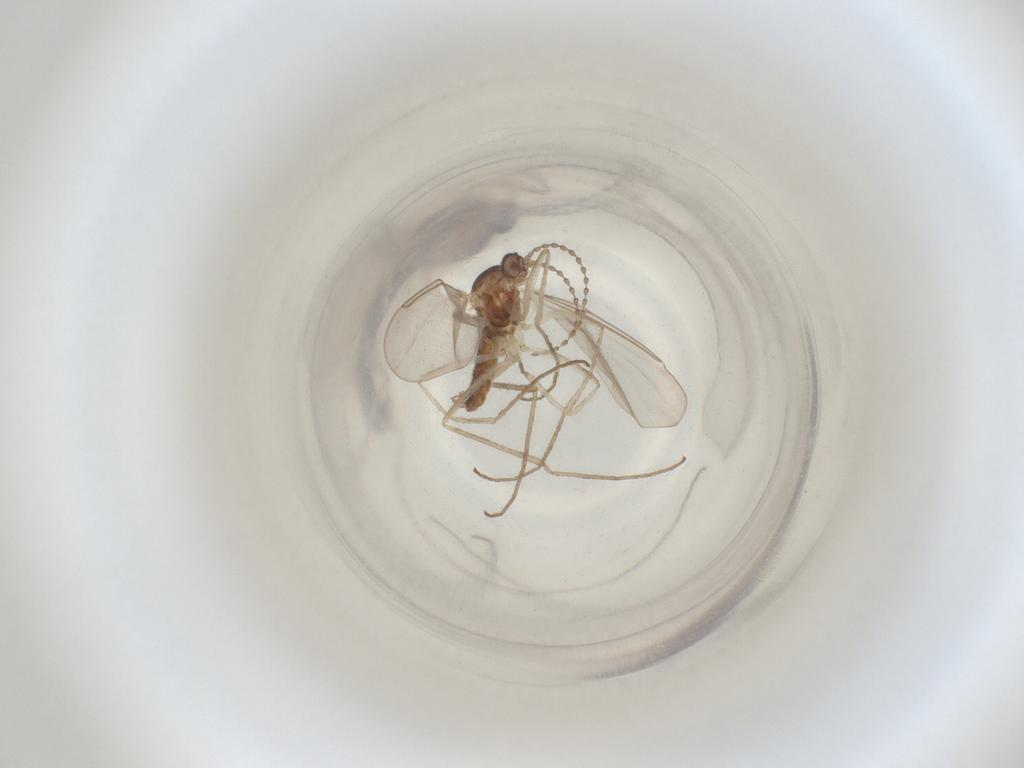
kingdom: Animalia
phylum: Arthropoda
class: Insecta
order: Diptera
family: Cecidomyiidae
